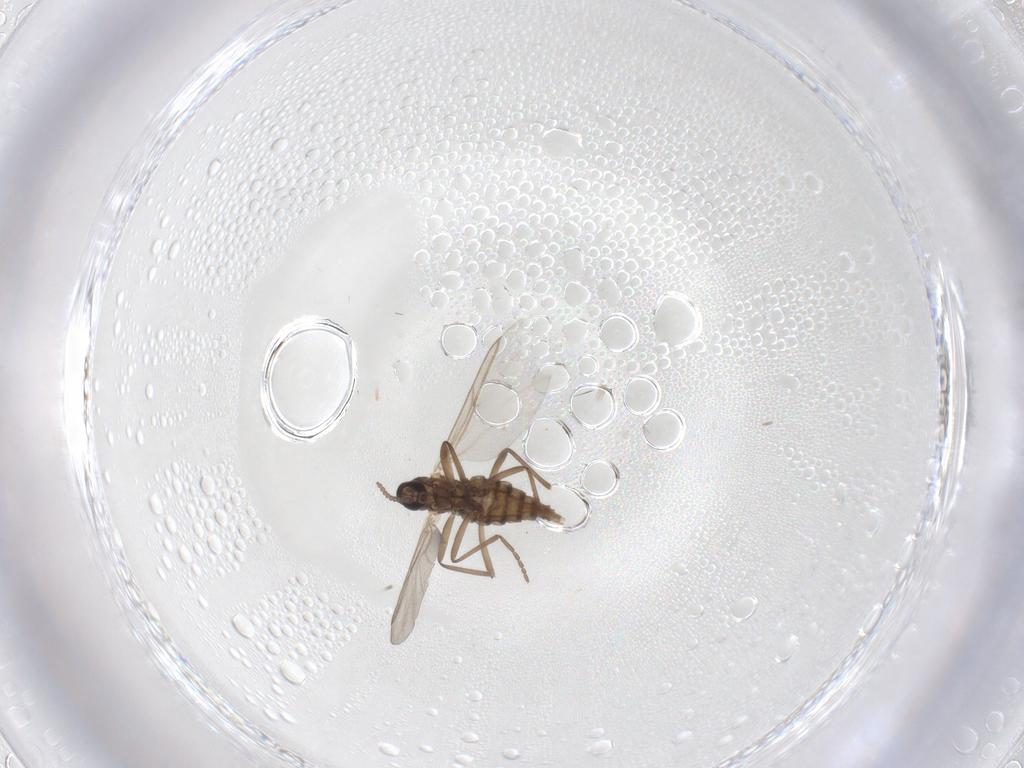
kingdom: Animalia
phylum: Arthropoda
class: Insecta
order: Diptera
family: Cecidomyiidae
